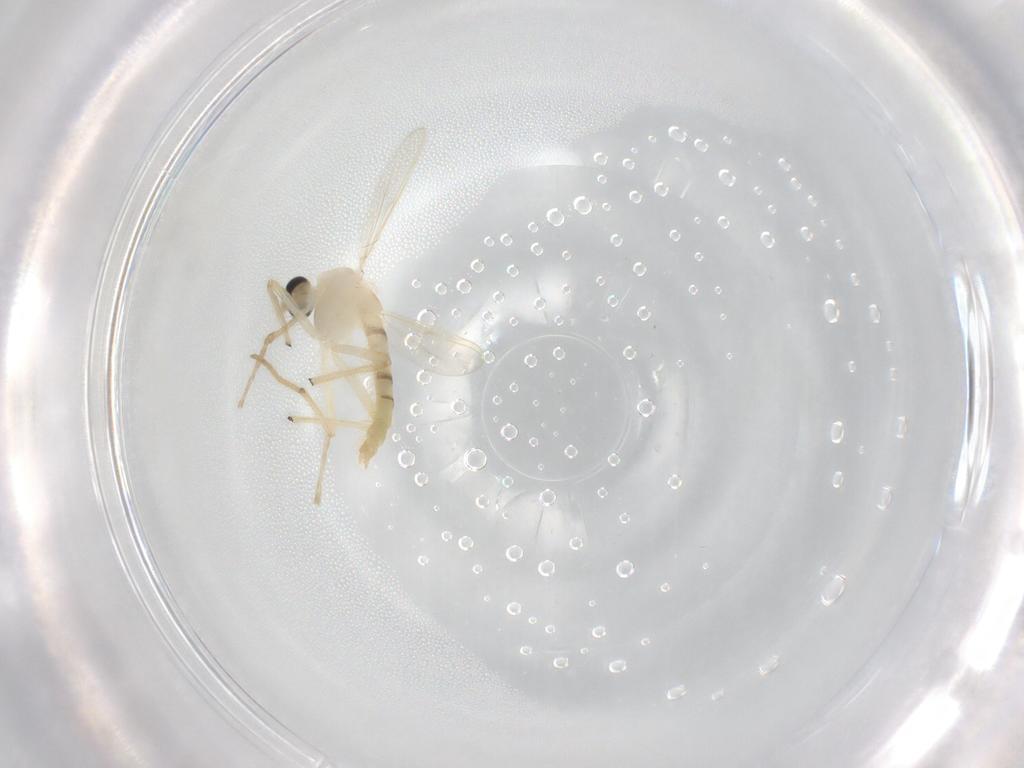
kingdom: Animalia
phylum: Arthropoda
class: Insecta
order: Diptera
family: Chironomidae
